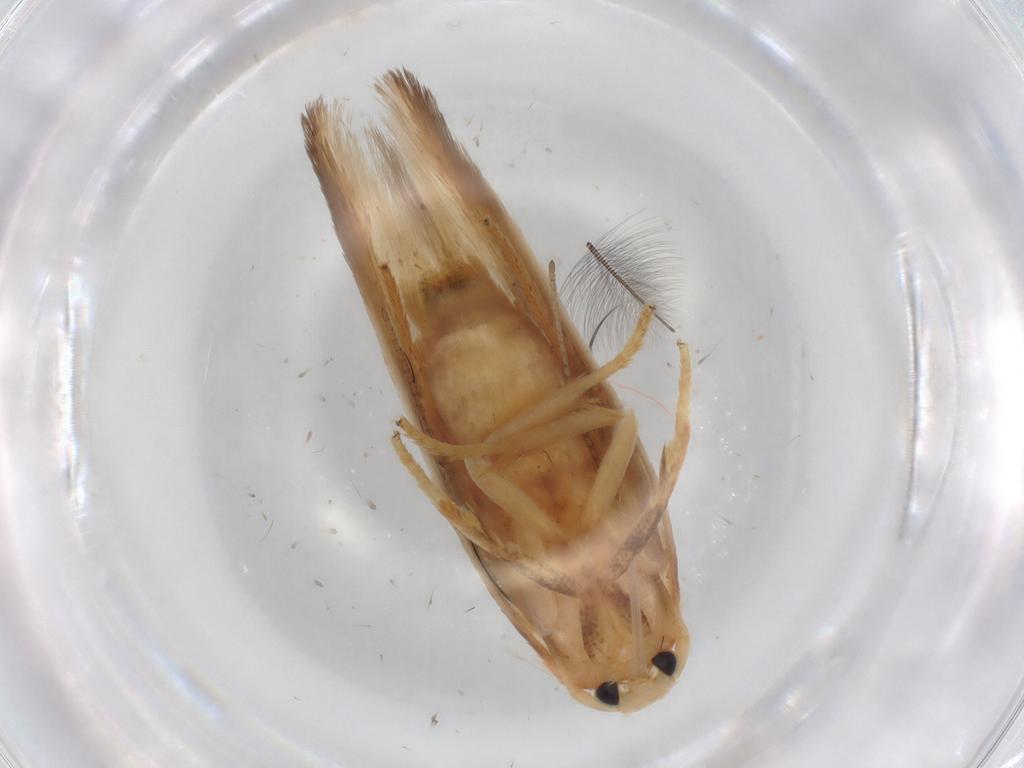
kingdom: Animalia
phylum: Arthropoda
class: Insecta
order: Lepidoptera
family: Geometridae
